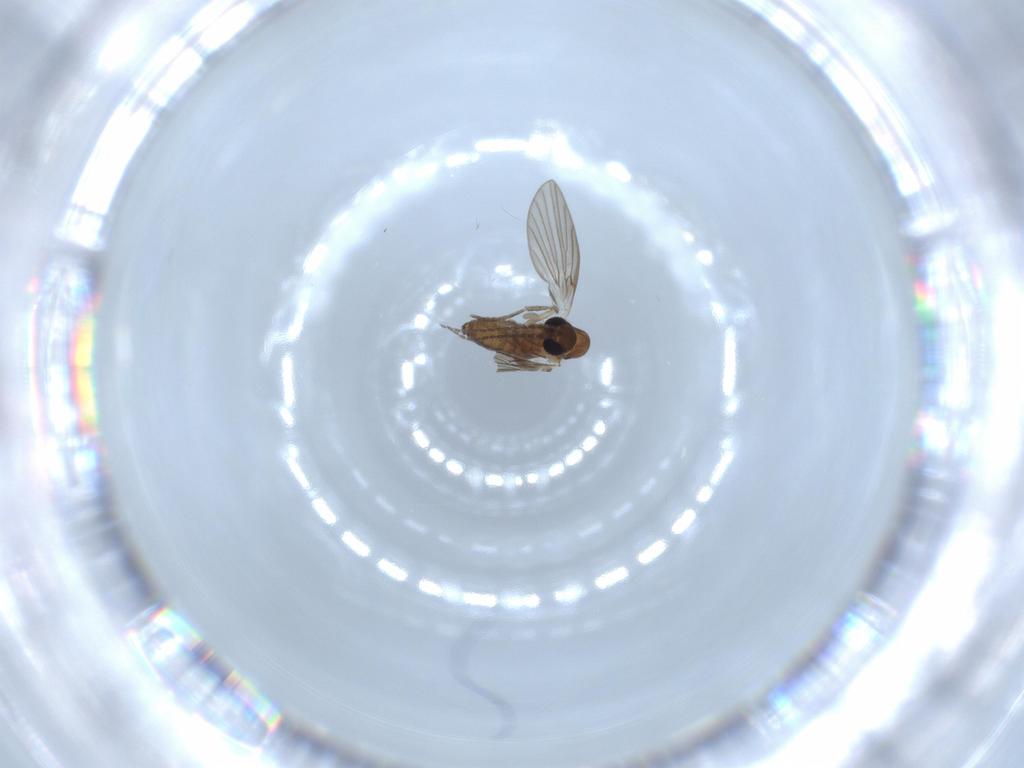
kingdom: Animalia
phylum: Arthropoda
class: Insecta
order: Diptera
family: Psychodidae
